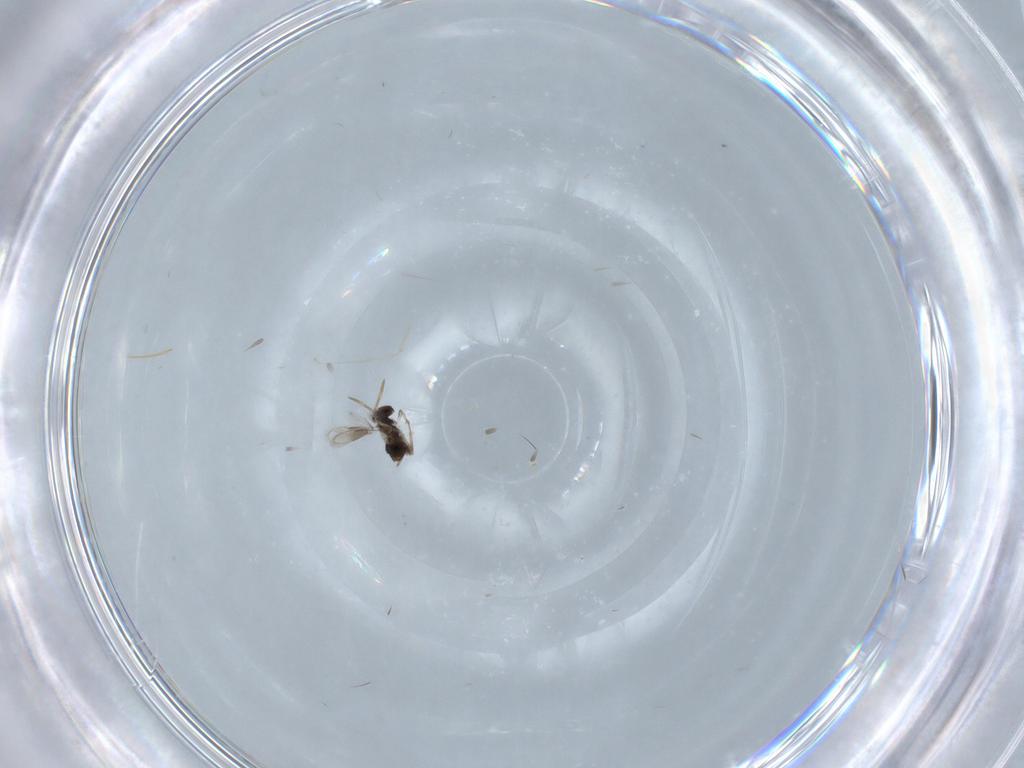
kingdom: Animalia
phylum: Arthropoda
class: Insecta
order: Hymenoptera
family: Aphelinidae
